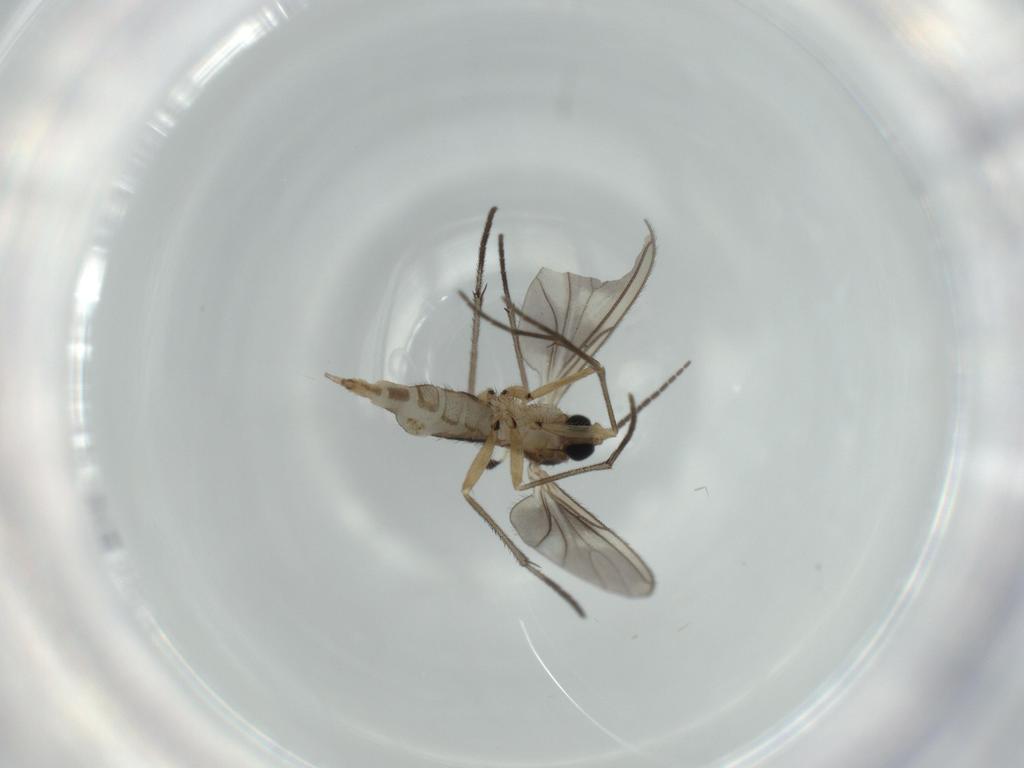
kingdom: Animalia
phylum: Arthropoda
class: Insecta
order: Diptera
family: Sciaridae
